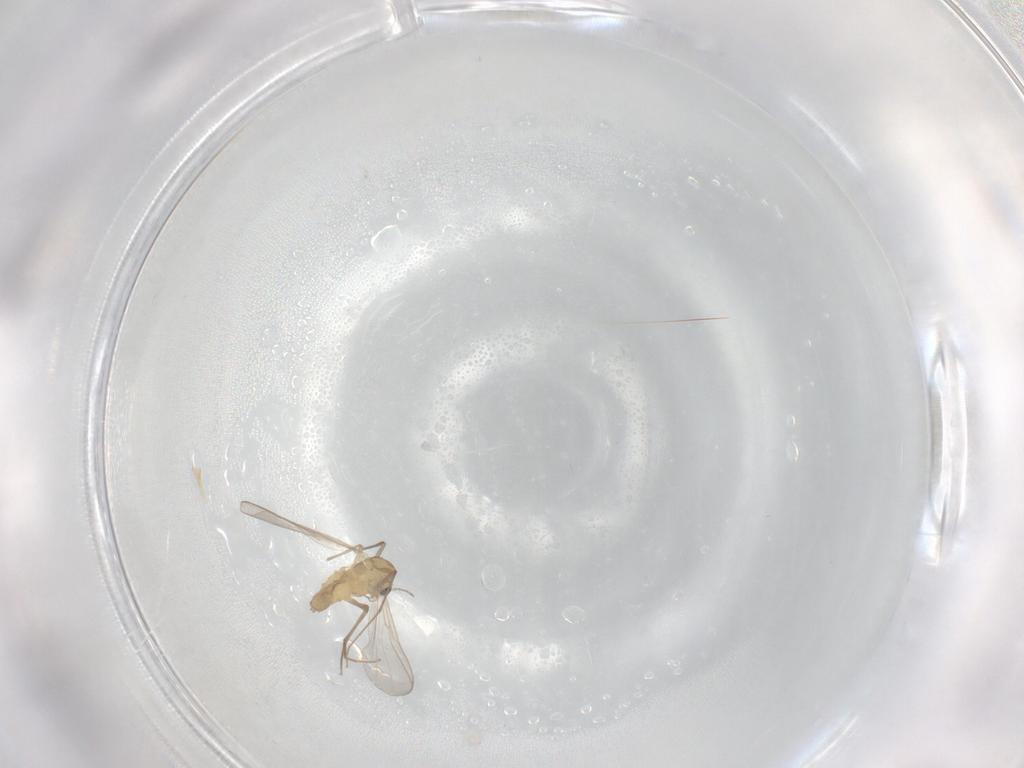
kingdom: Animalia
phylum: Arthropoda
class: Insecta
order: Diptera
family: Chironomidae
